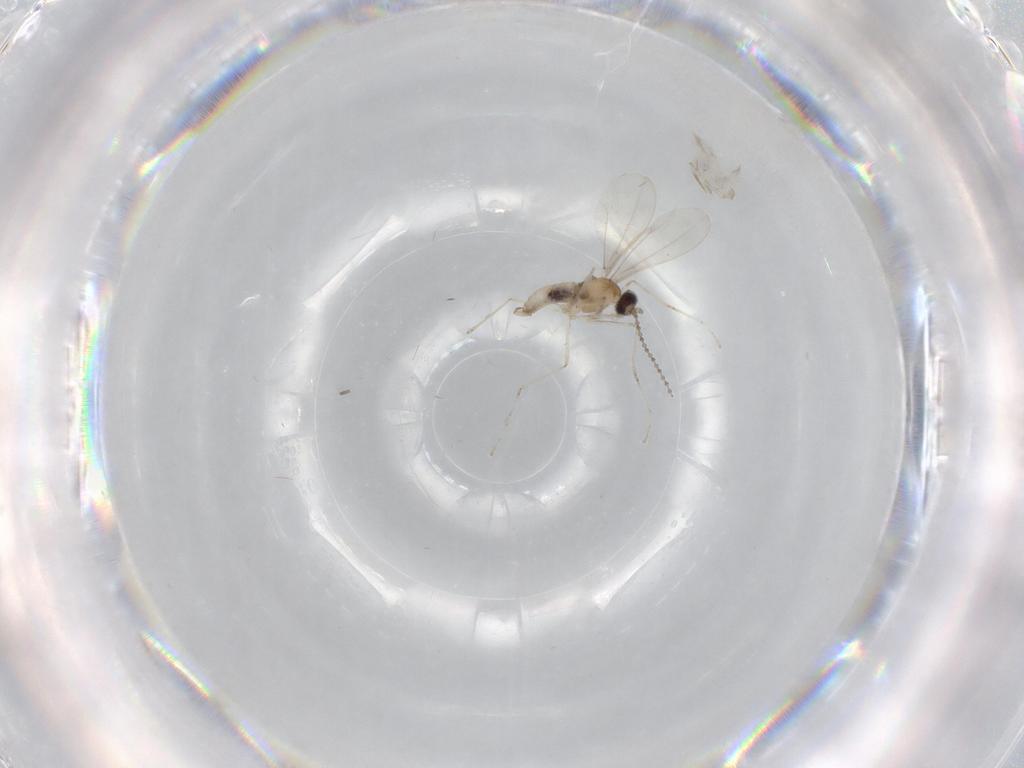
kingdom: Animalia
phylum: Arthropoda
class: Insecta
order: Diptera
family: Cecidomyiidae
